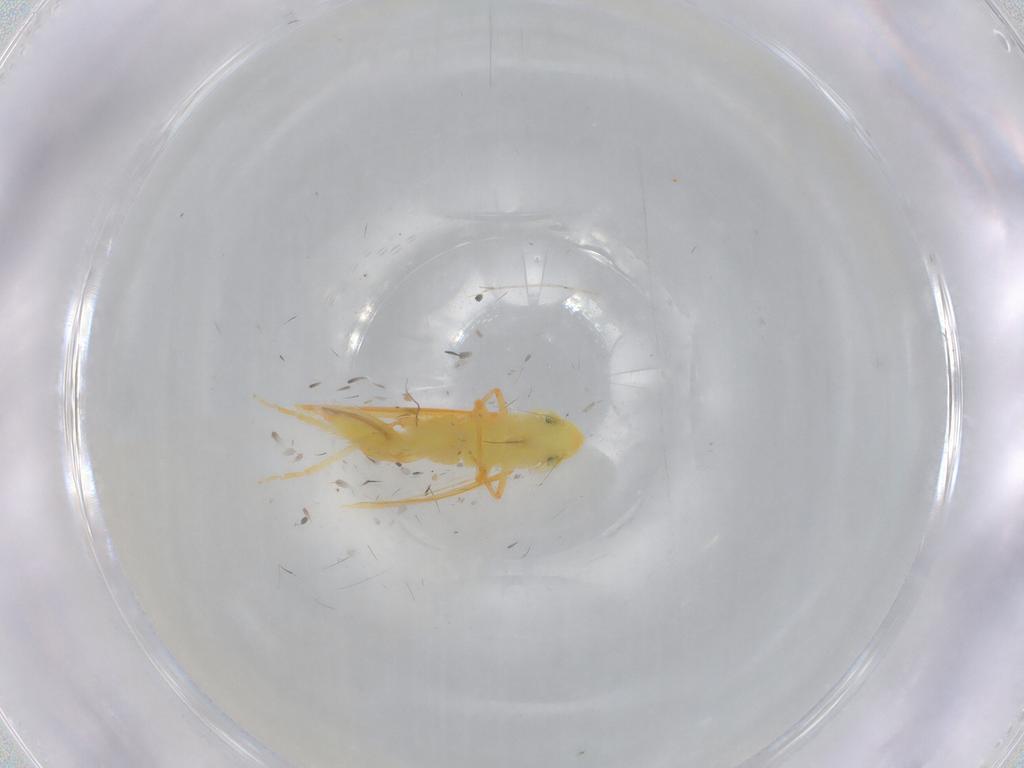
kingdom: Animalia
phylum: Arthropoda
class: Insecta
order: Hemiptera
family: Cicadellidae
